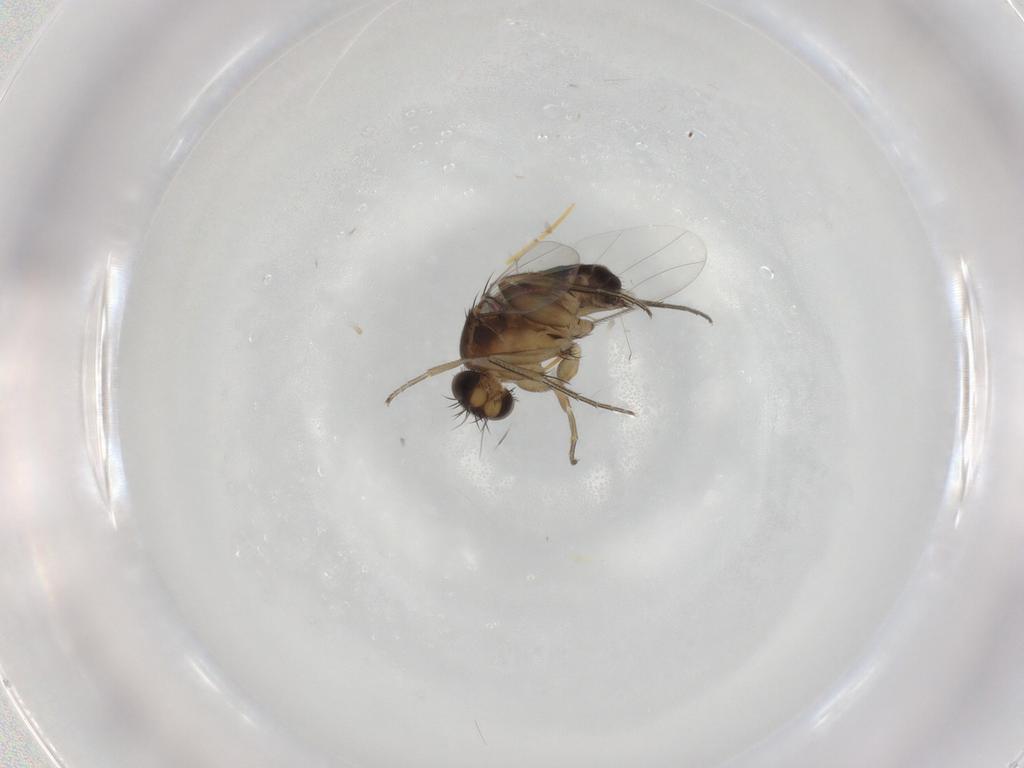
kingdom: Animalia
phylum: Arthropoda
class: Insecta
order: Diptera
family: Phoridae
